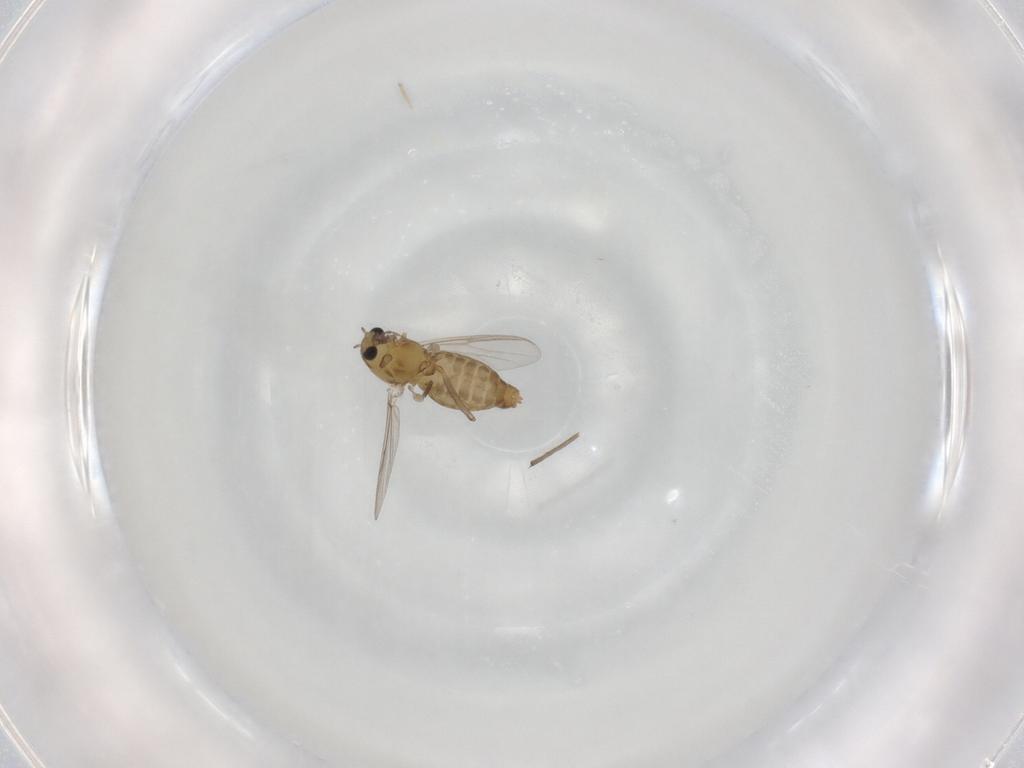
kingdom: Animalia
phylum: Arthropoda
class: Insecta
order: Diptera
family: Chironomidae
